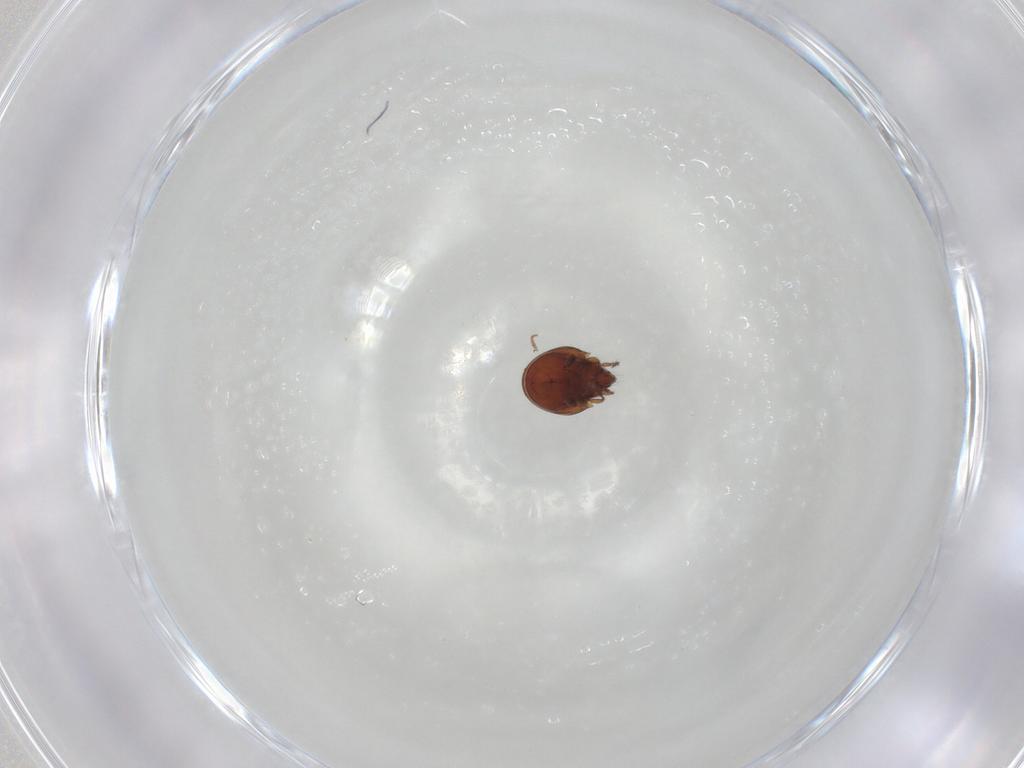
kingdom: Animalia
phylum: Arthropoda
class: Arachnida
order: Sarcoptiformes
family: Ceratozetidae
